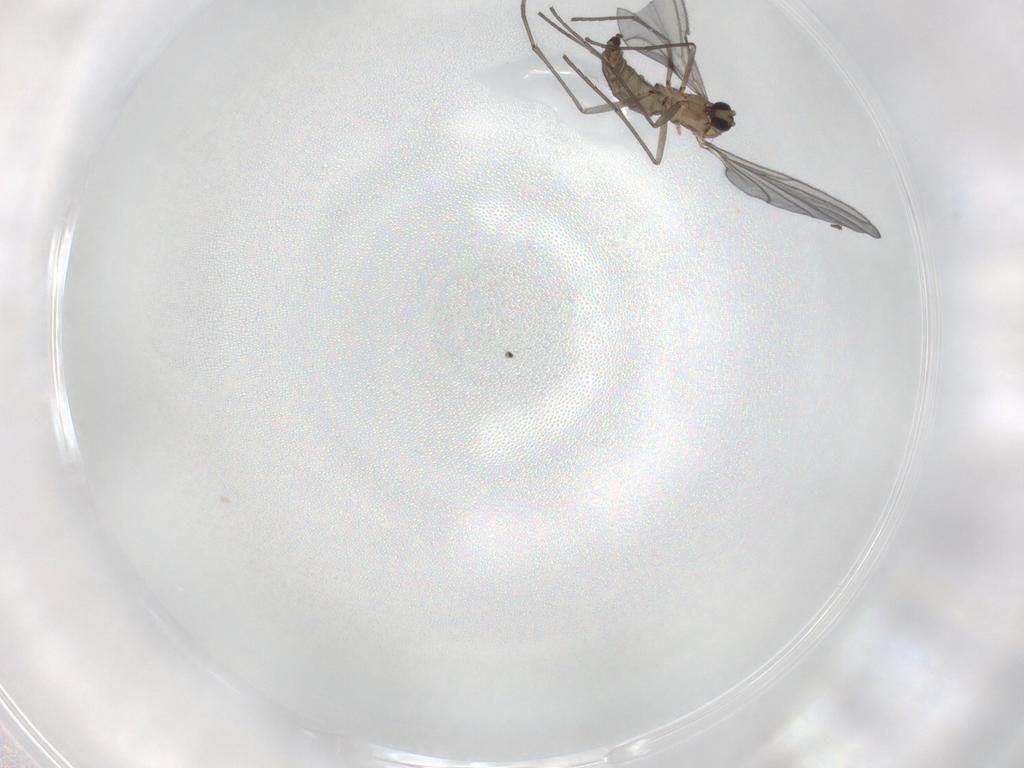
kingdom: Animalia
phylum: Arthropoda
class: Insecta
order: Diptera
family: Sciaridae
